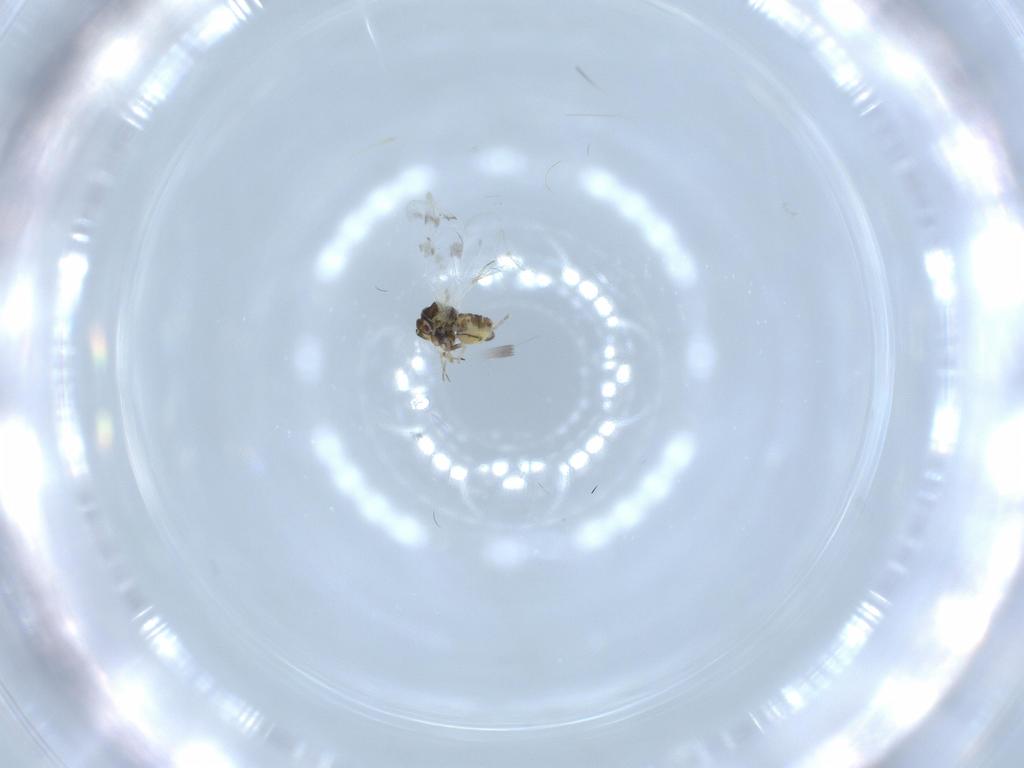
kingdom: Animalia
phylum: Arthropoda
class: Insecta
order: Hemiptera
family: Aleyrodidae
